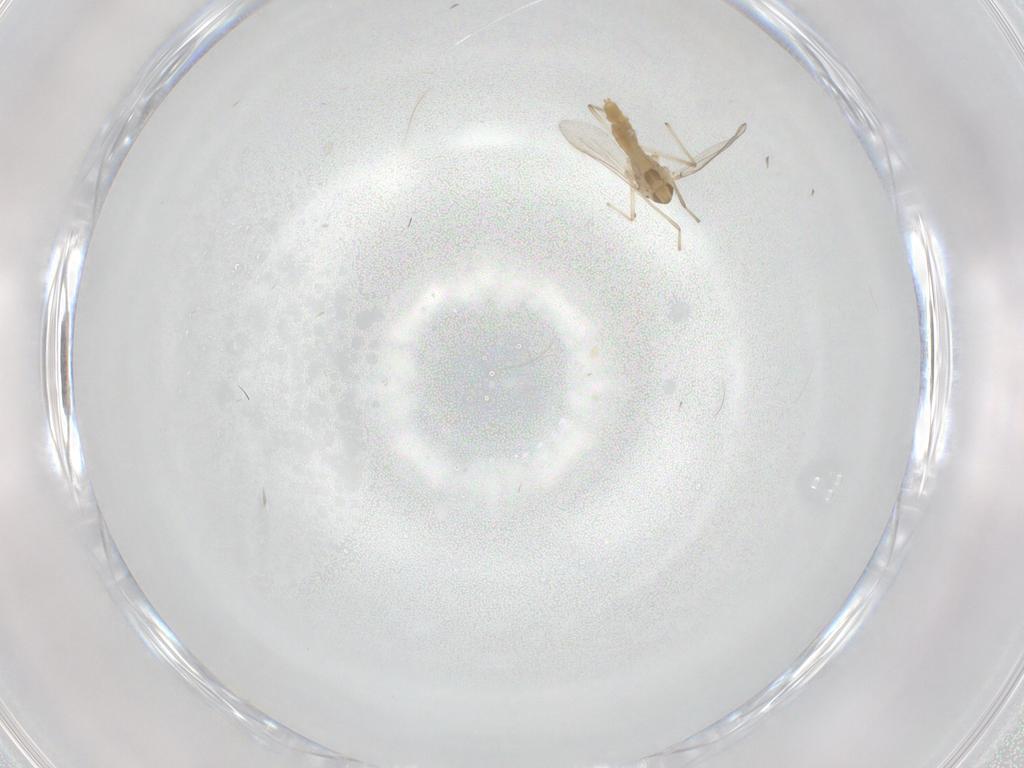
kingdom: Animalia
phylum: Arthropoda
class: Insecta
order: Diptera
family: Chironomidae
